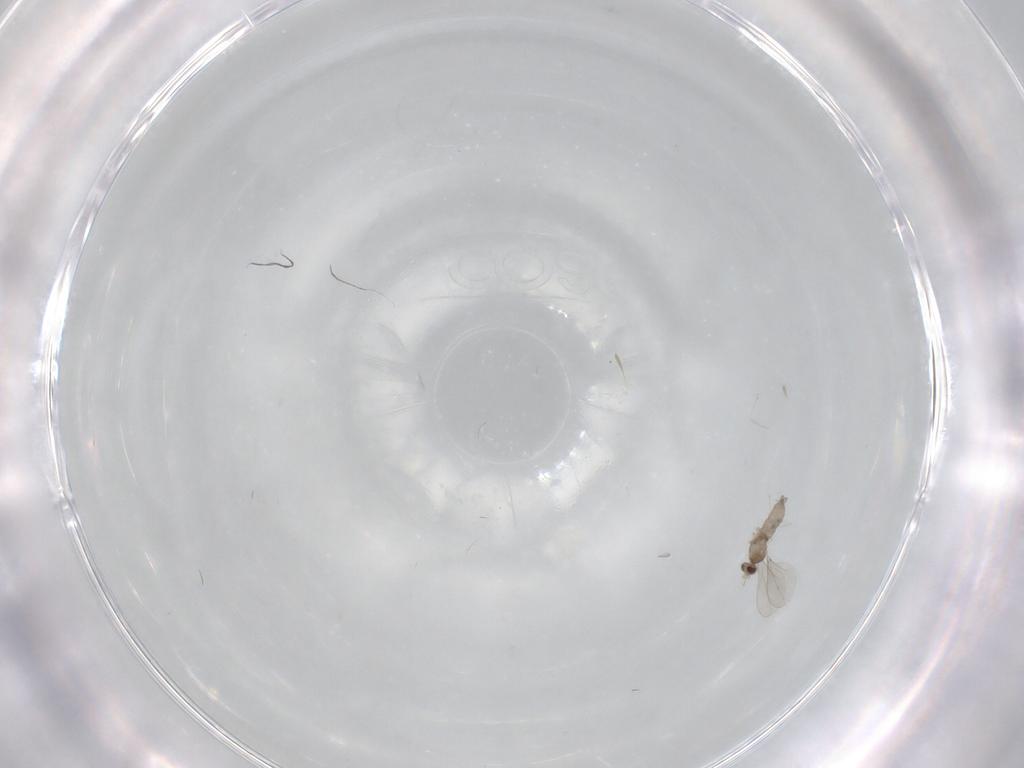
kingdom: Animalia
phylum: Arthropoda
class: Insecta
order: Diptera
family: Cecidomyiidae
